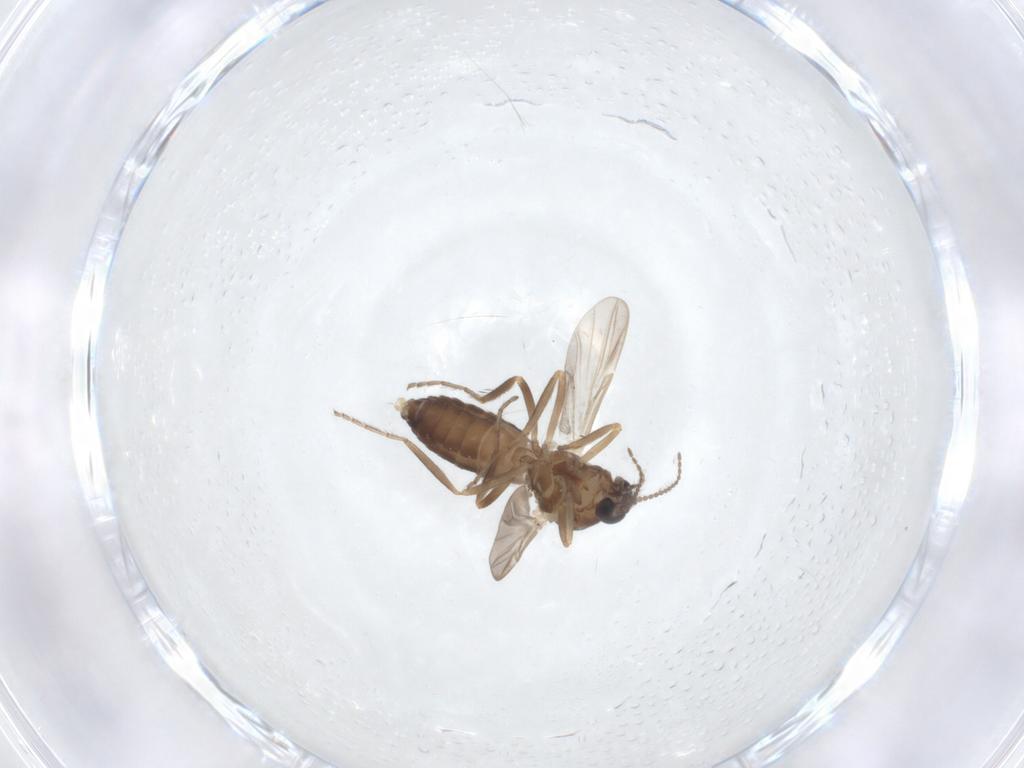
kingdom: Animalia
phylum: Arthropoda
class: Insecta
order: Diptera
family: Ceratopogonidae
